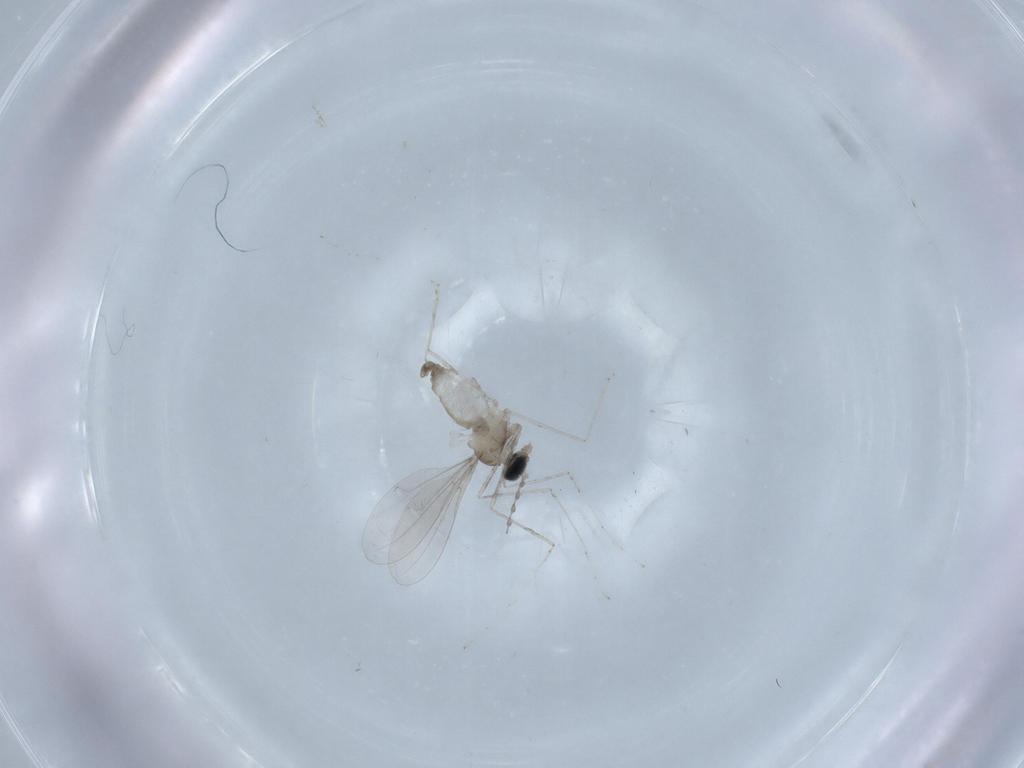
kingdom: Animalia
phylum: Arthropoda
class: Insecta
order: Diptera
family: Psychodidae
